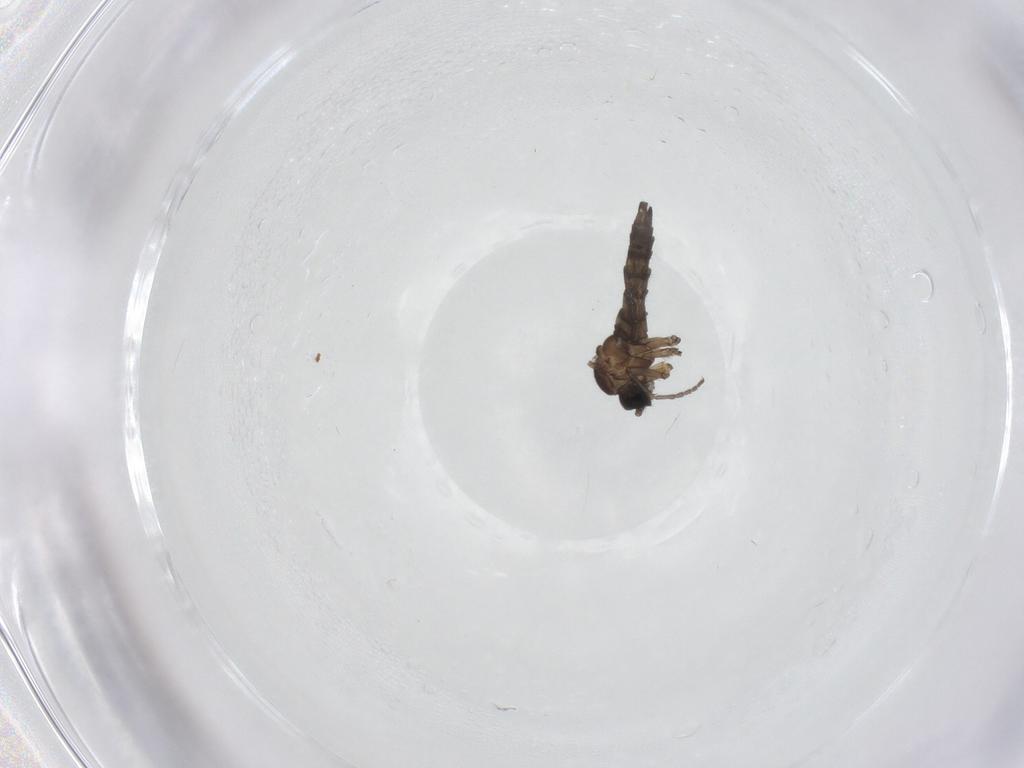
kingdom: Animalia
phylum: Arthropoda
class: Insecta
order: Diptera
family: Sciaridae
